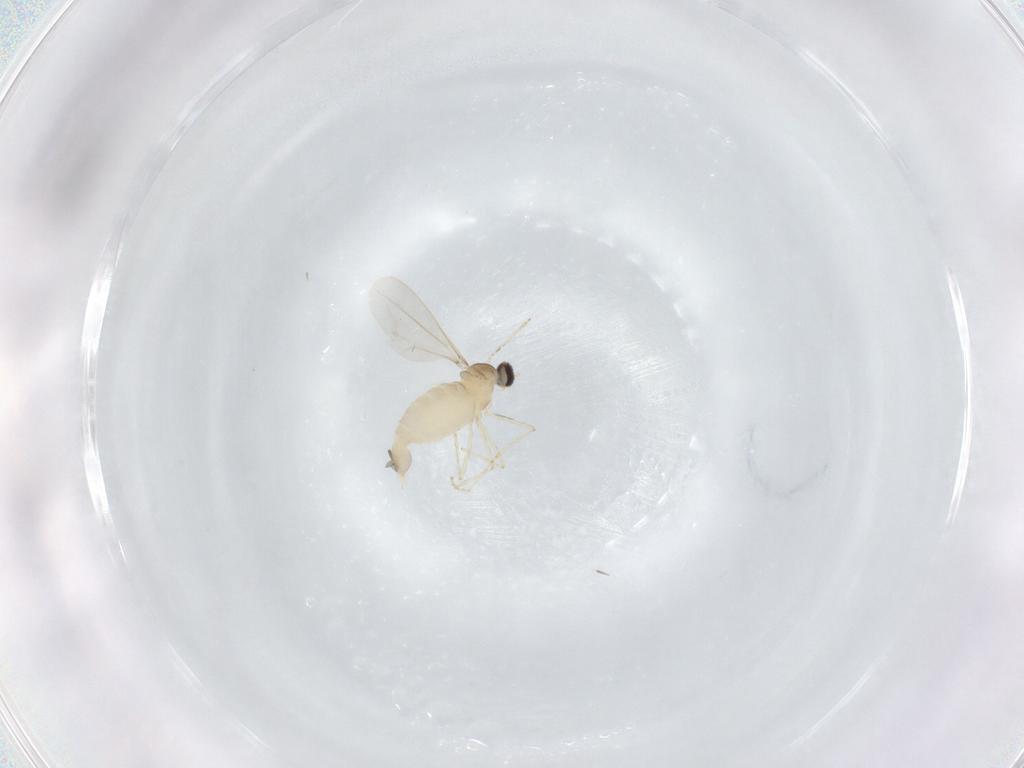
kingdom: Animalia
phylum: Arthropoda
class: Insecta
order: Diptera
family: Cecidomyiidae
